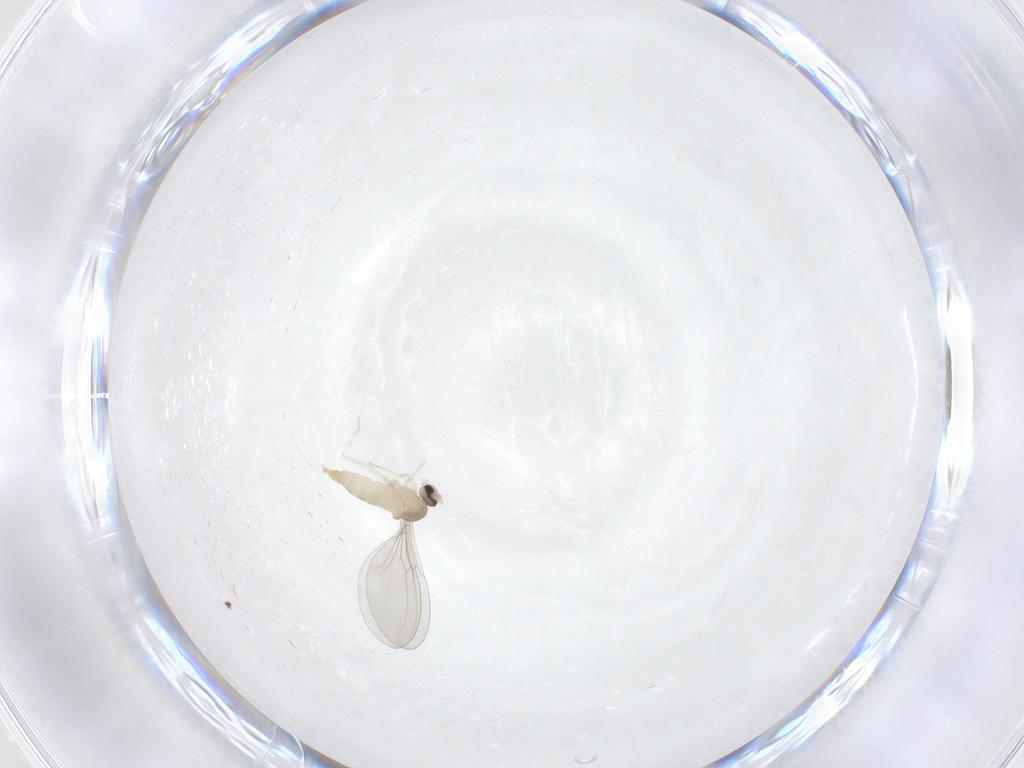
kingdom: Animalia
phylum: Arthropoda
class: Insecta
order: Diptera
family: Cecidomyiidae
